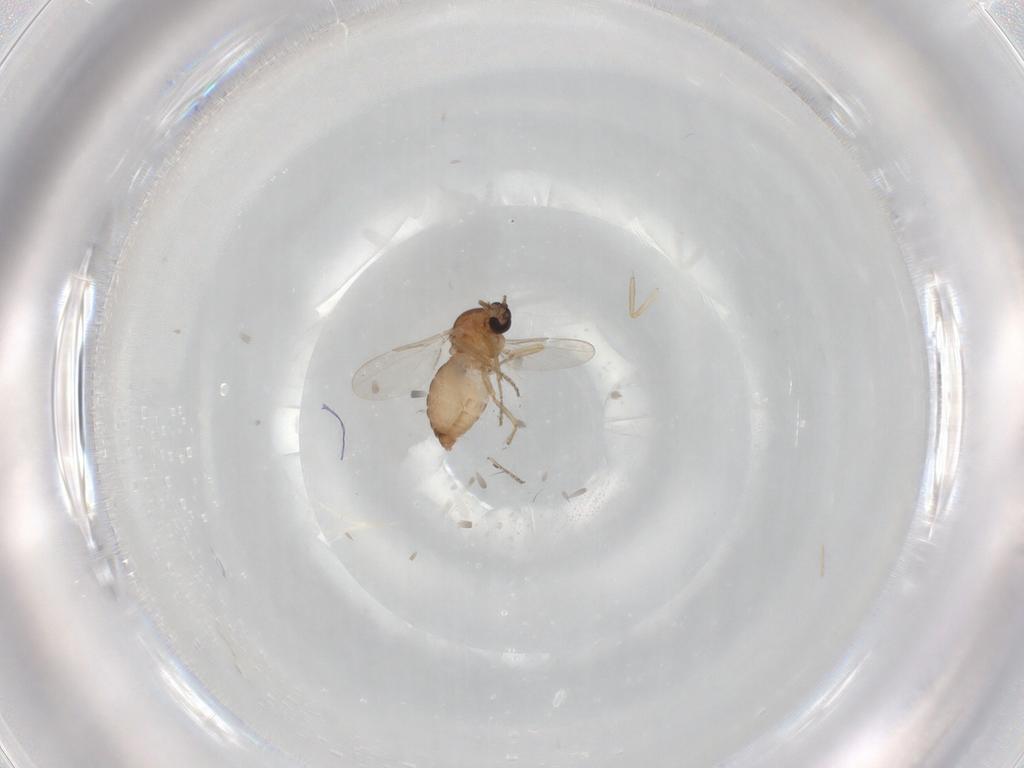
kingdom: Animalia
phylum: Arthropoda
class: Insecta
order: Diptera
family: Ceratopogonidae
